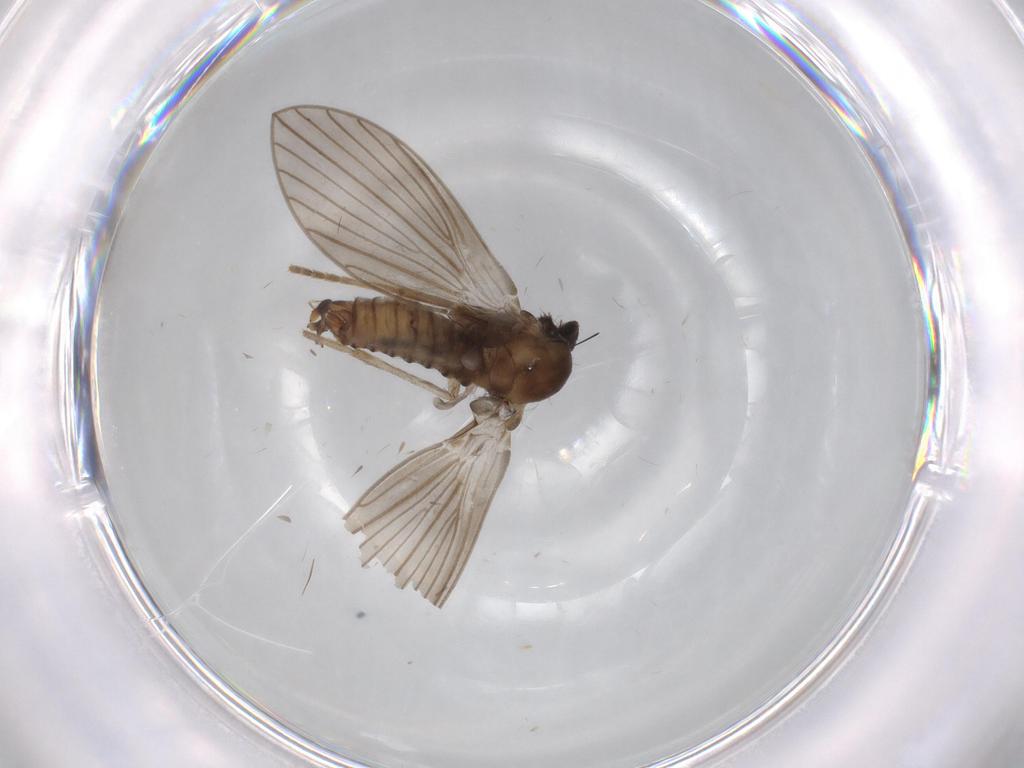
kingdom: Animalia
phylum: Arthropoda
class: Insecta
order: Diptera
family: Cecidomyiidae
